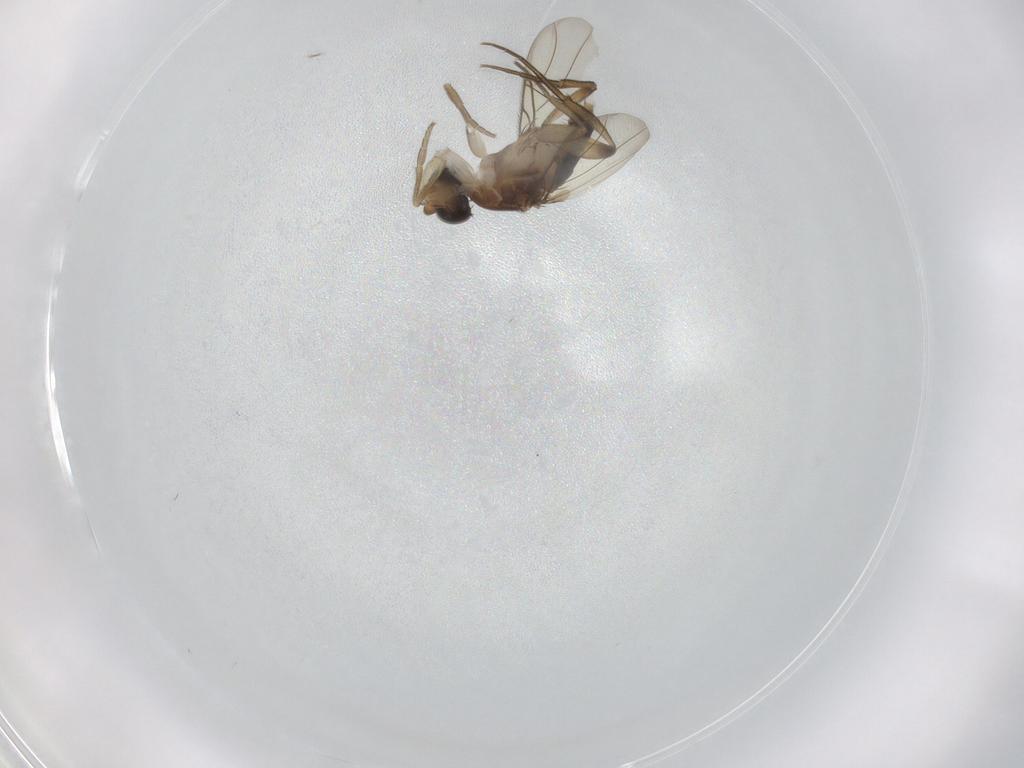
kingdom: Animalia
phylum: Arthropoda
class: Insecta
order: Diptera
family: Phoridae
